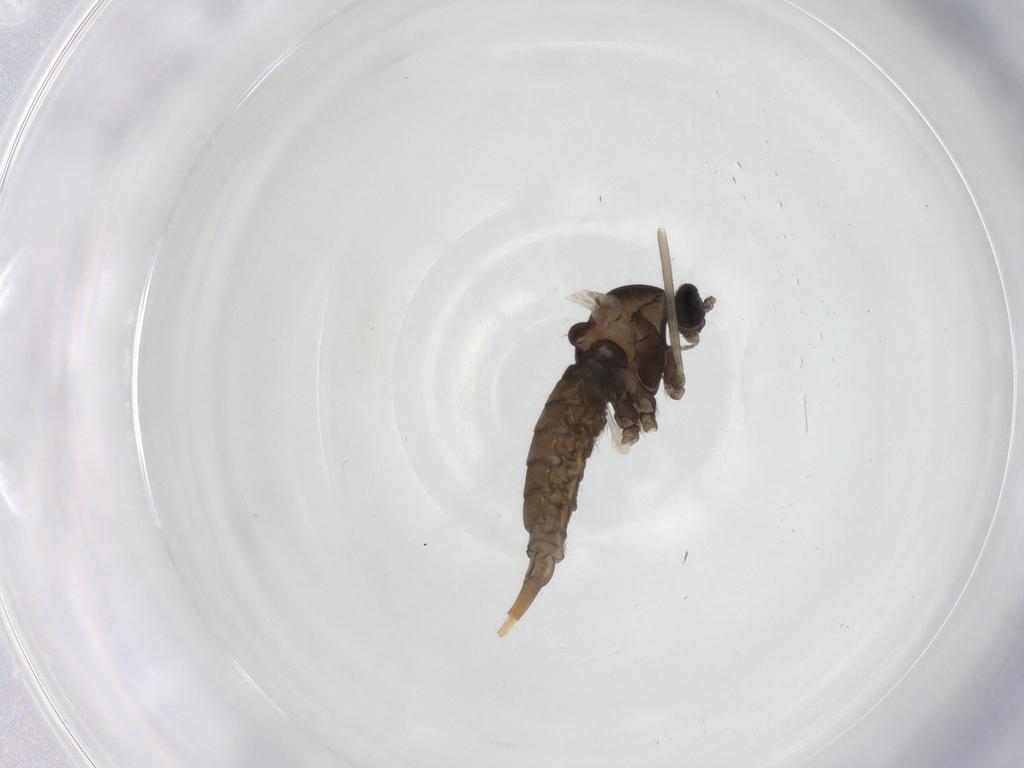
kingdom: Animalia
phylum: Arthropoda
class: Insecta
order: Diptera
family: Cecidomyiidae
